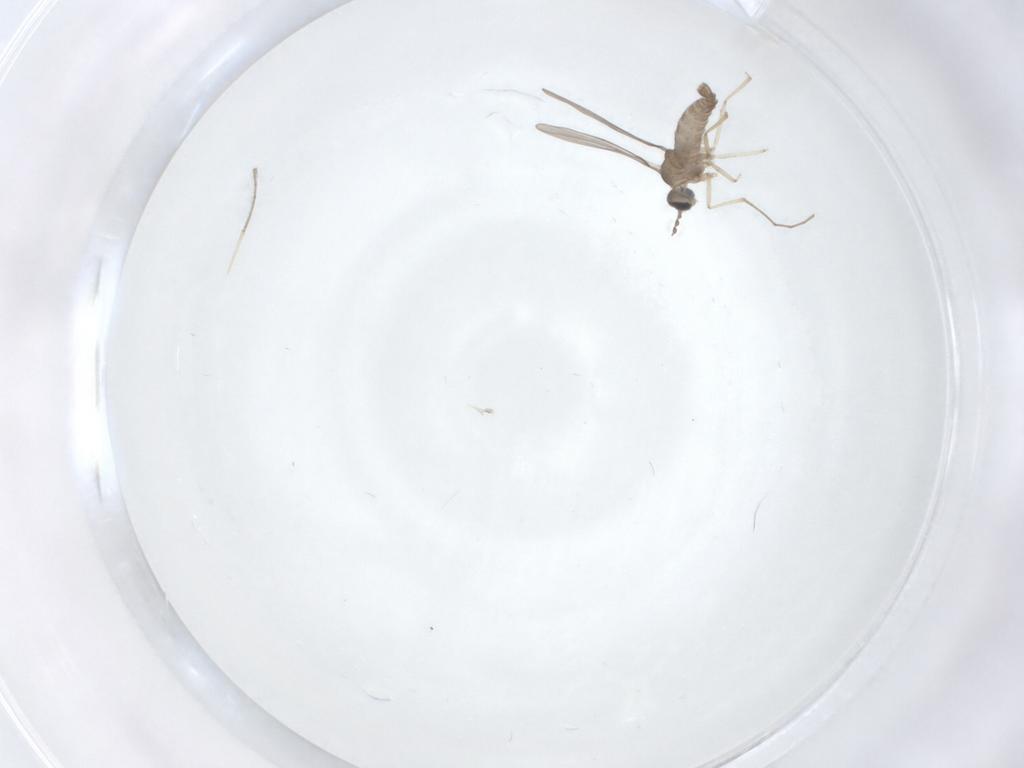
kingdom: Animalia
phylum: Arthropoda
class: Insecta
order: Diptera
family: Cecidomyiidae
